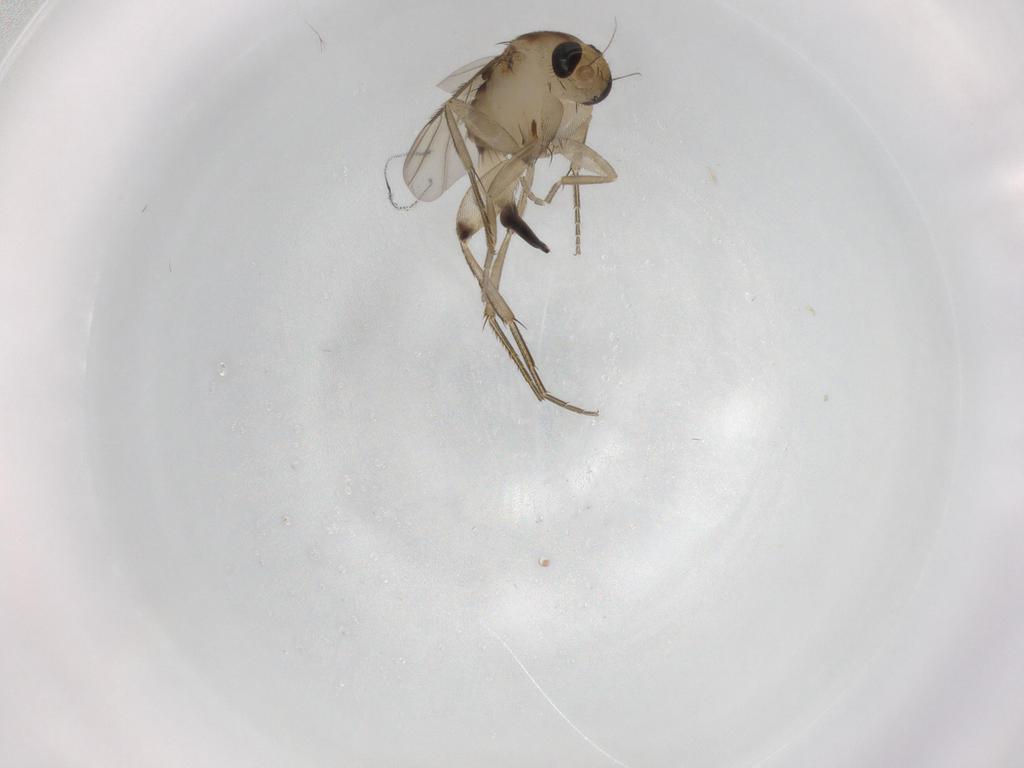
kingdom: Animalia
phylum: Arthropoda
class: Insecta
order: Diptera
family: Phoridae
